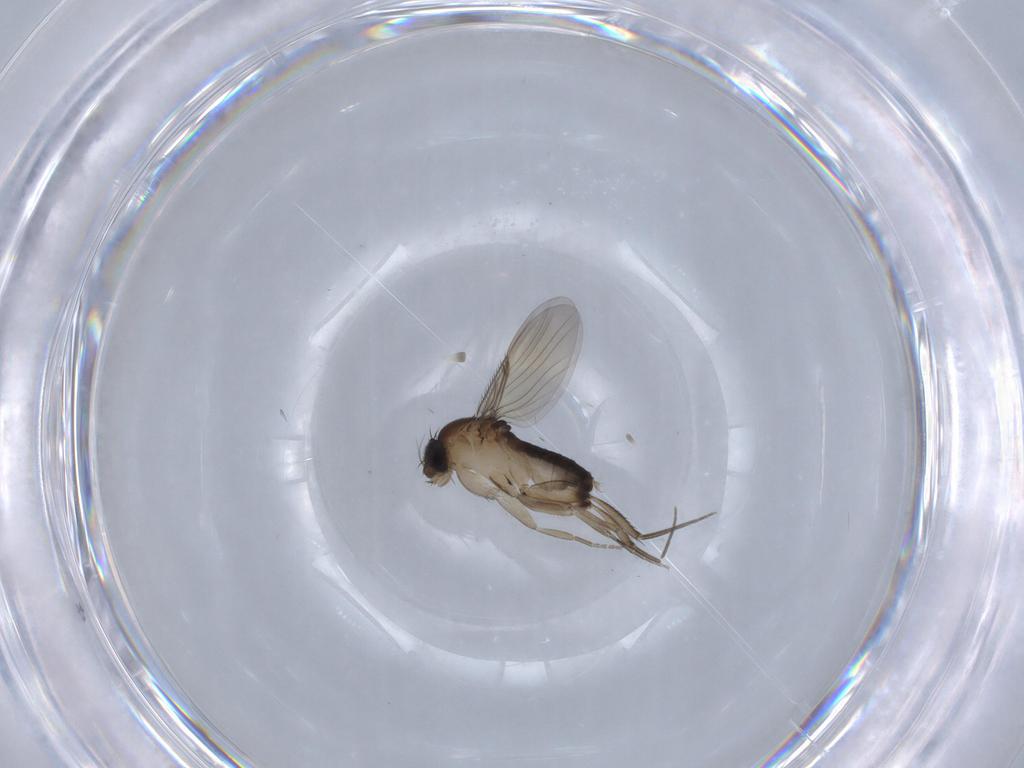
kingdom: Animalia
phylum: Arthropoda
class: Insecta
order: Diptera
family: Phoridae
